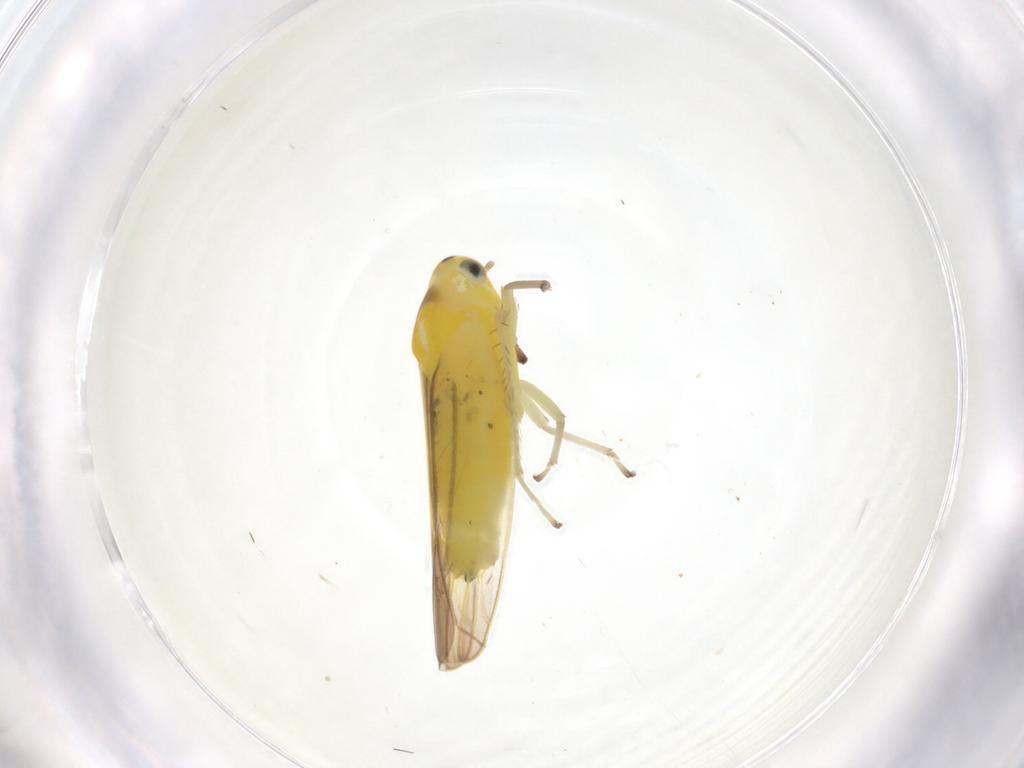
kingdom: Animalia
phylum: Arthropoda
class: Insecta
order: Hemiptera
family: Cicadellidae
